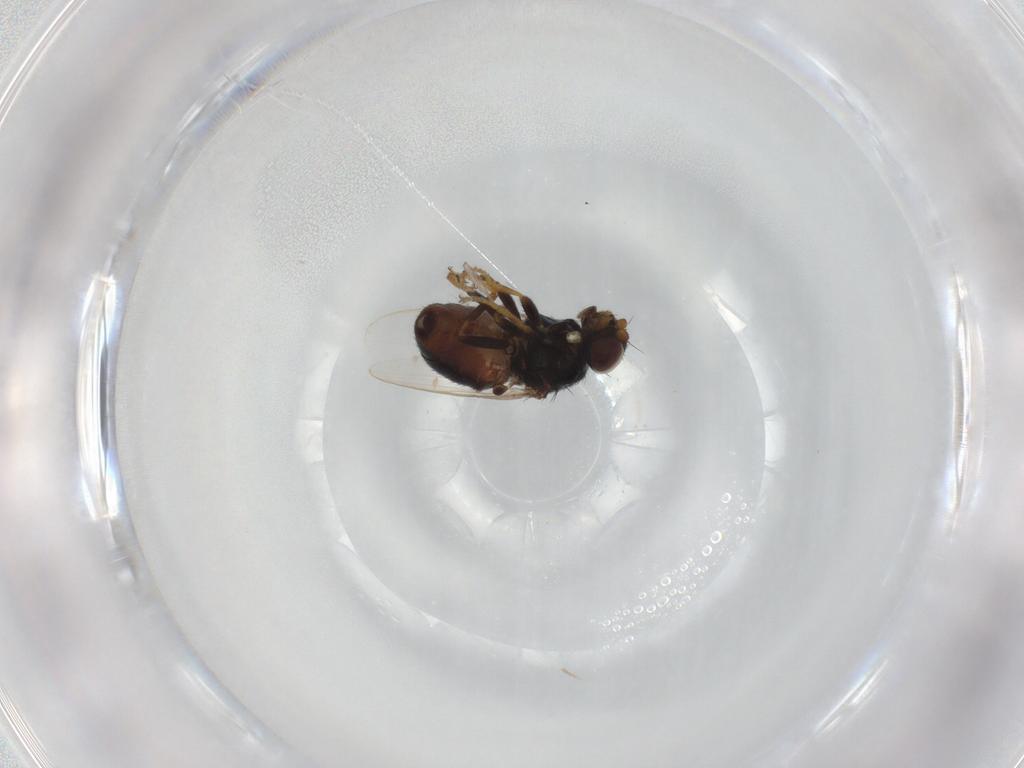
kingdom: Animalia
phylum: Arthropoda
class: Insecta
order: Diptera
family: Chloropidae
